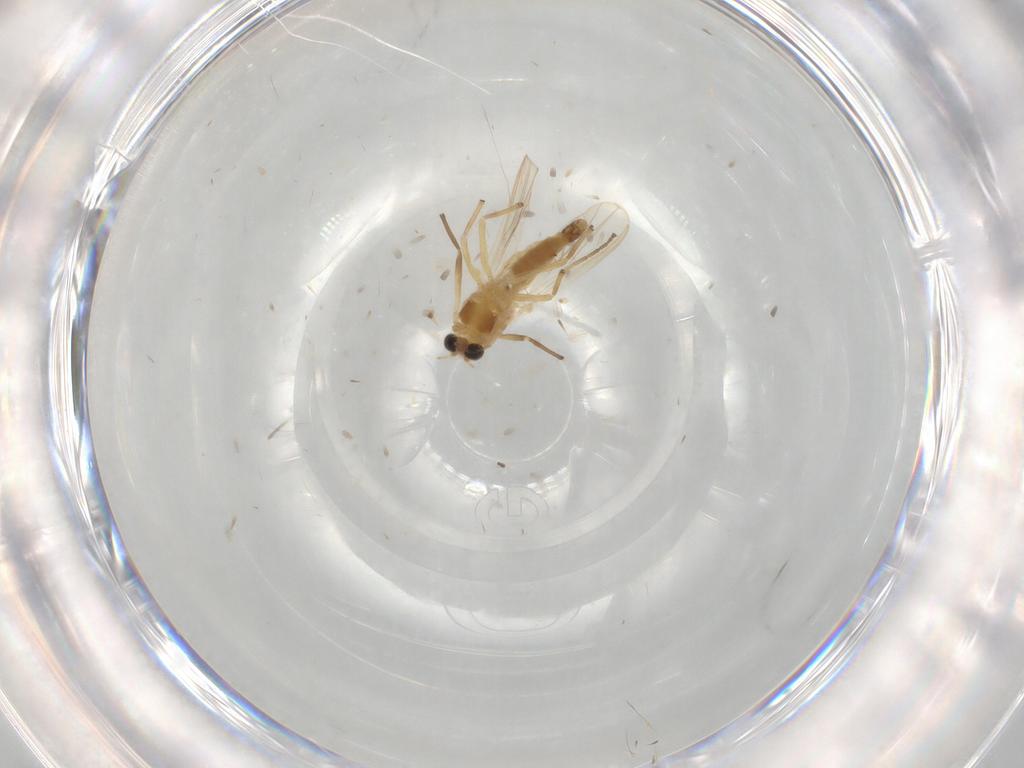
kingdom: Animalia
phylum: Arthropoda
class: Insecta
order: Diptera
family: Chironomidae
